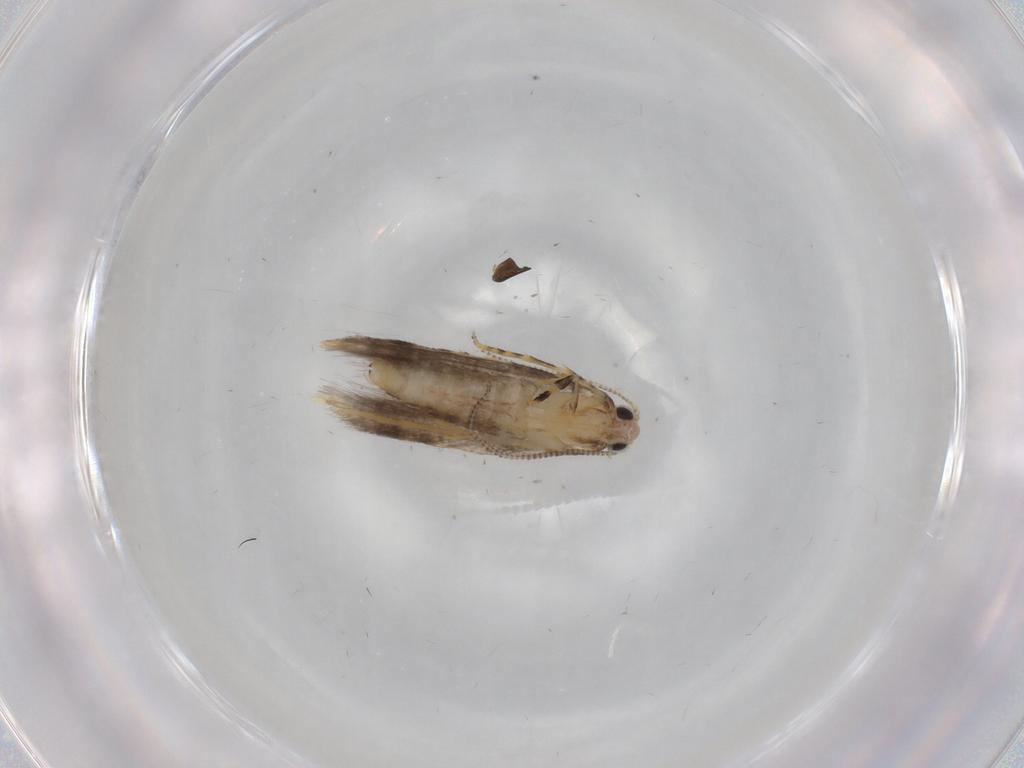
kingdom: Animalia
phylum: Arthropoda
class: Insecta
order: Lepidoptera
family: Tineidae
